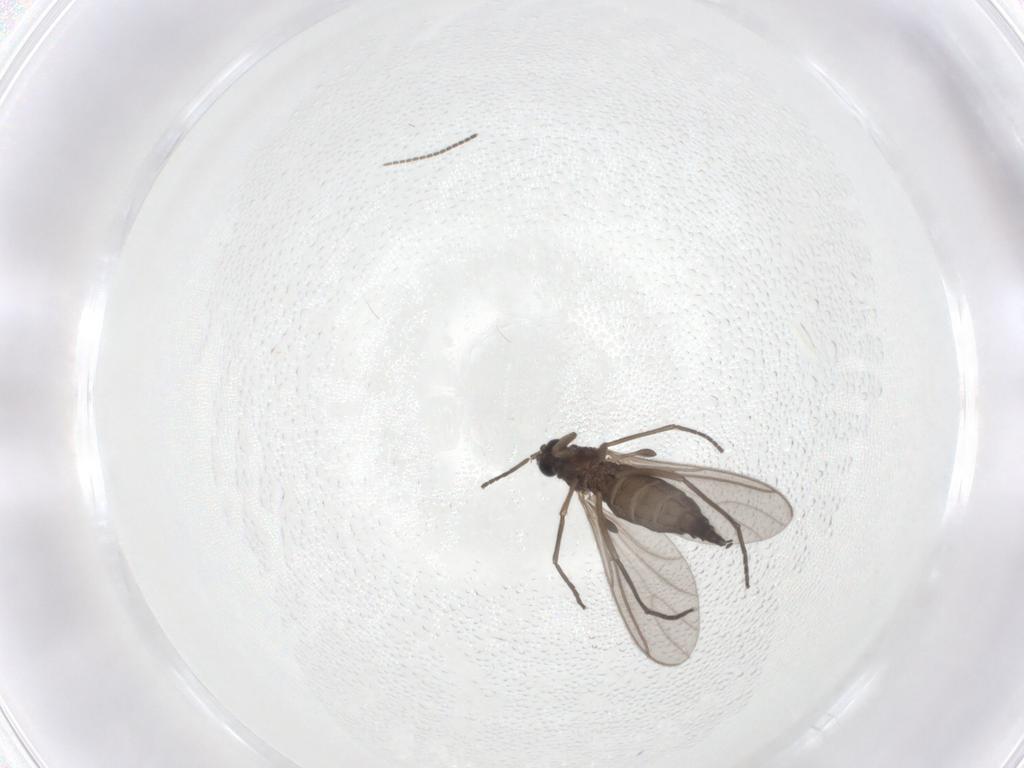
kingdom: Animalia
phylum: Arthropoda
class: Insecta
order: Diptera
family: Sciaridae
